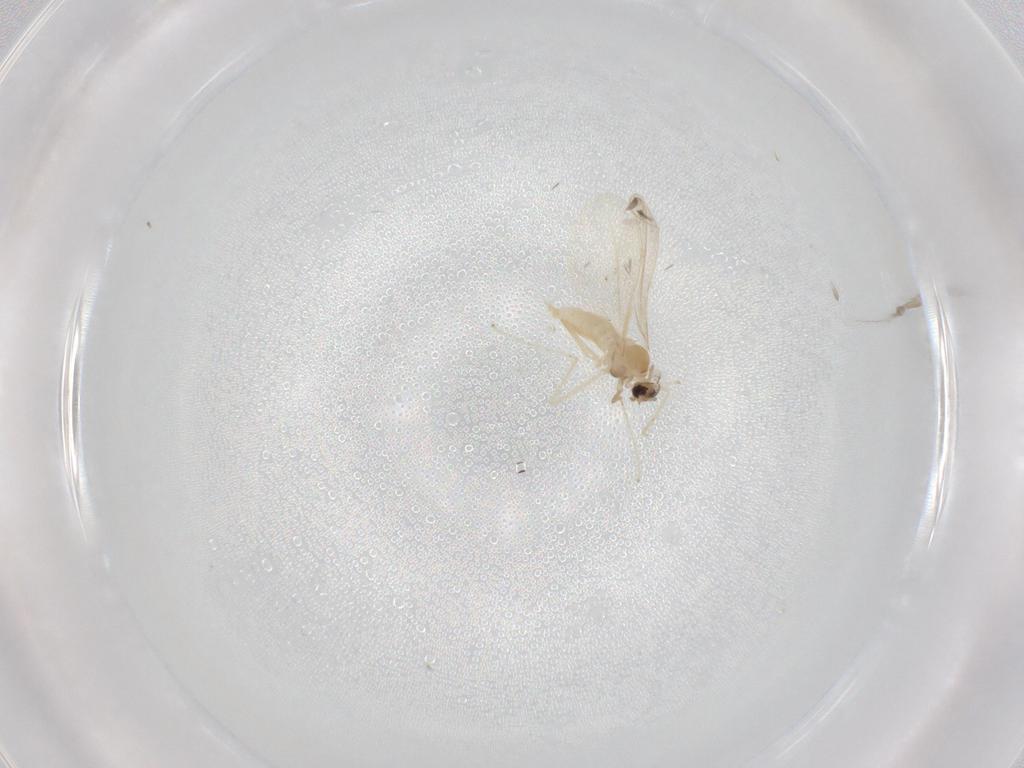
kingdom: Animalia
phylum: Arthropoda
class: Insecta
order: Diptera
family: Cecidomyiidae
